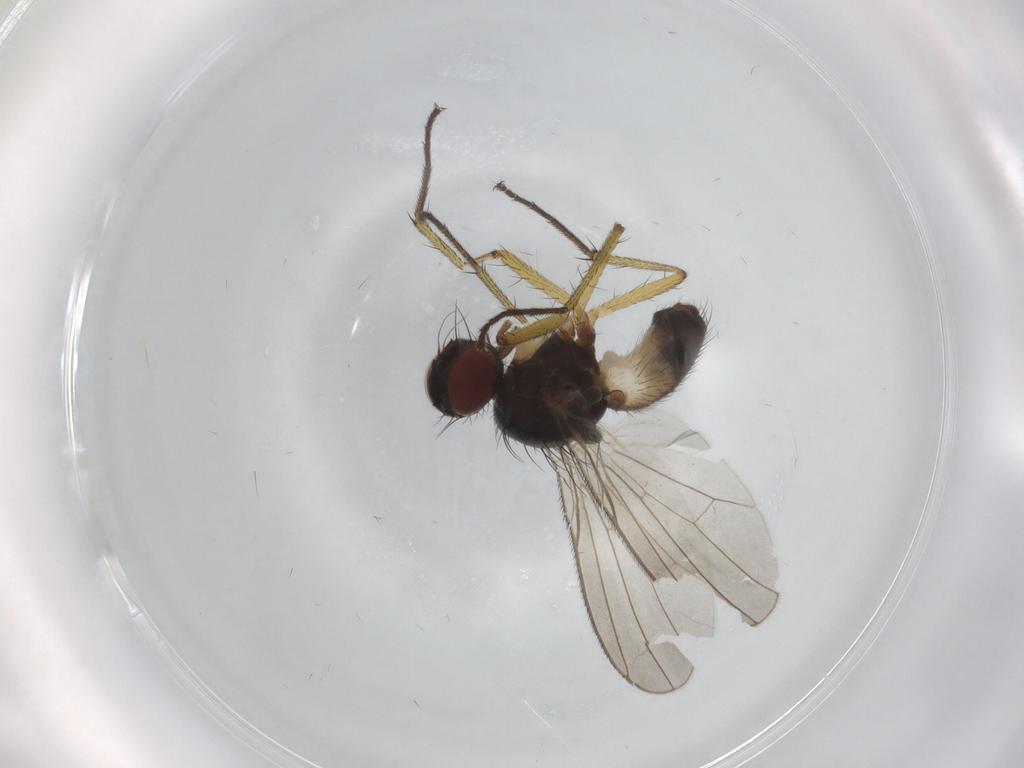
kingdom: Animalia
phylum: Arthropoda
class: Insecta
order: Diptera
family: Muscidae
